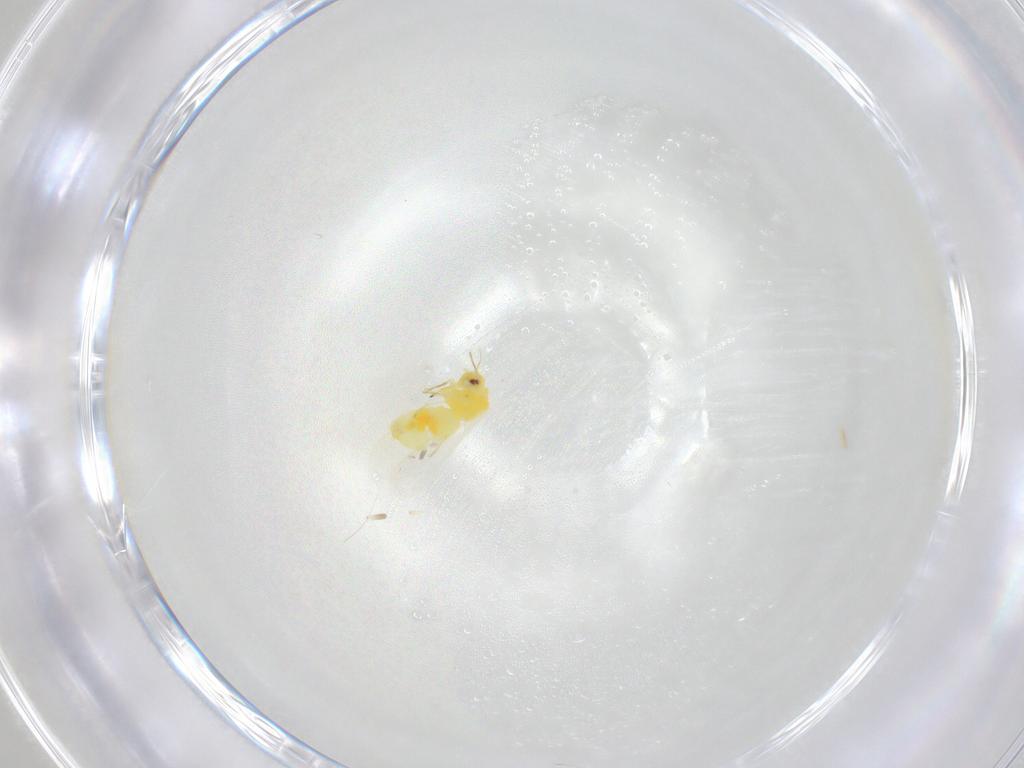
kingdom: Animalia
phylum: Arthropoda
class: Insecta
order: Hemiptera
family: Aleyrodidae
